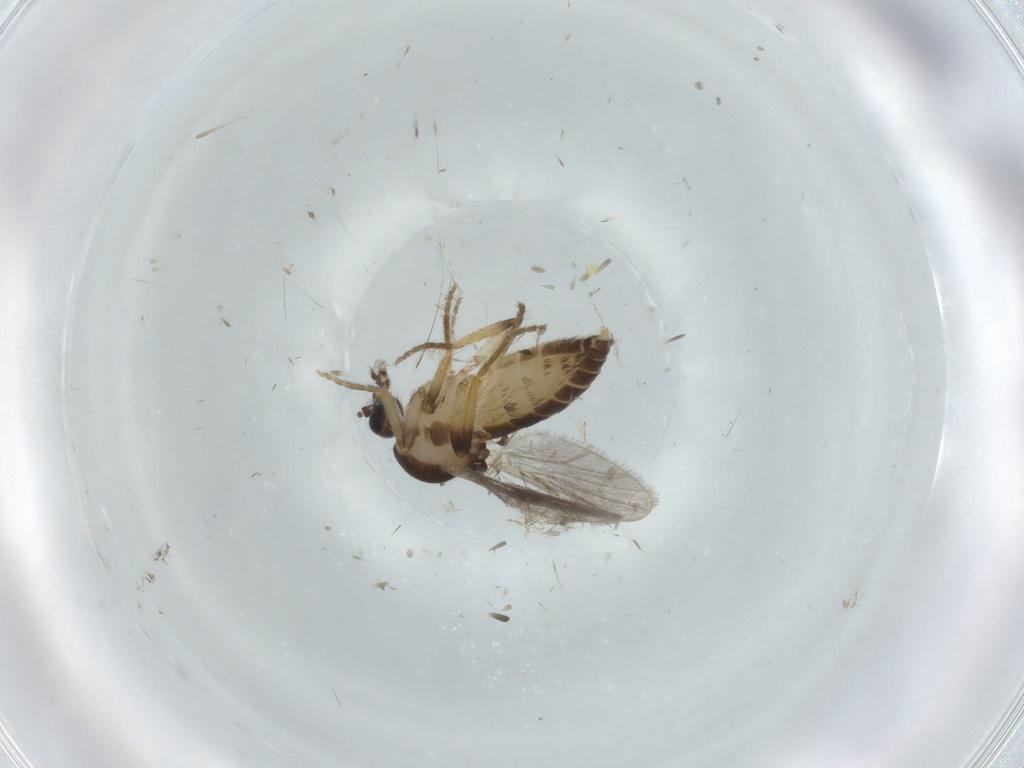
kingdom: Animalia
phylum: Arthropoda
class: Insecta
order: Diptera
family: Ceratopogonidae
